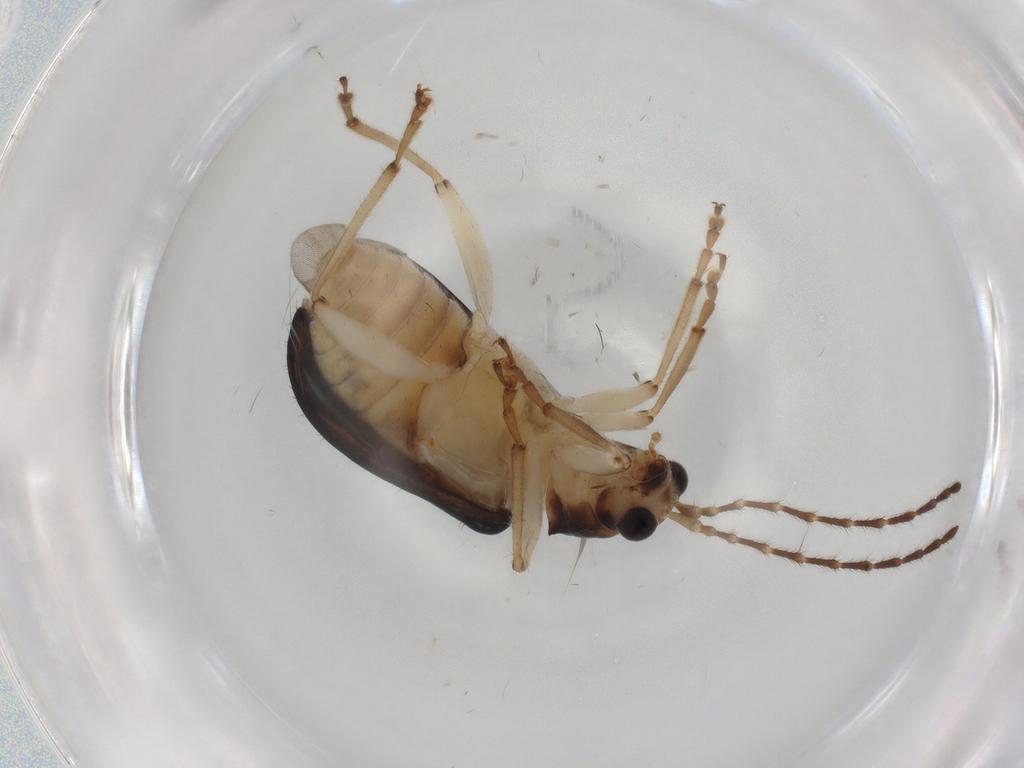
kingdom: Animalia
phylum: Arthropoda
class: Insecta
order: Coleoptera
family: Chrysomelidae
